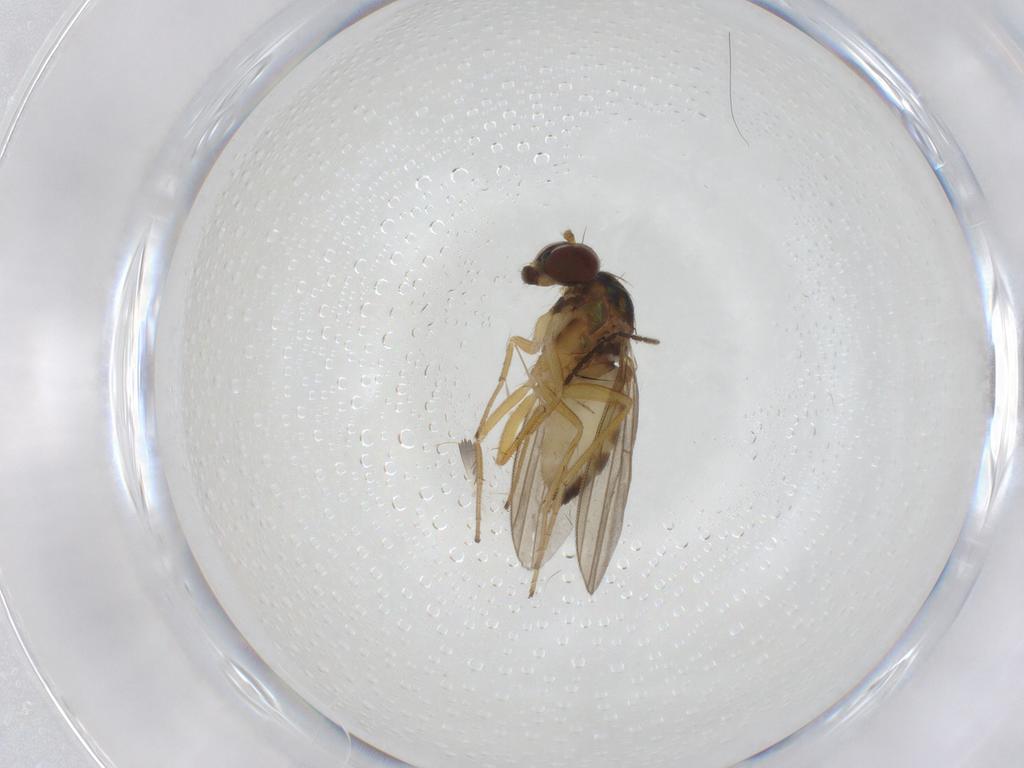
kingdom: Animalia
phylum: Arthropoda
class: Insecta
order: Diptera
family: Dolichopodidae
